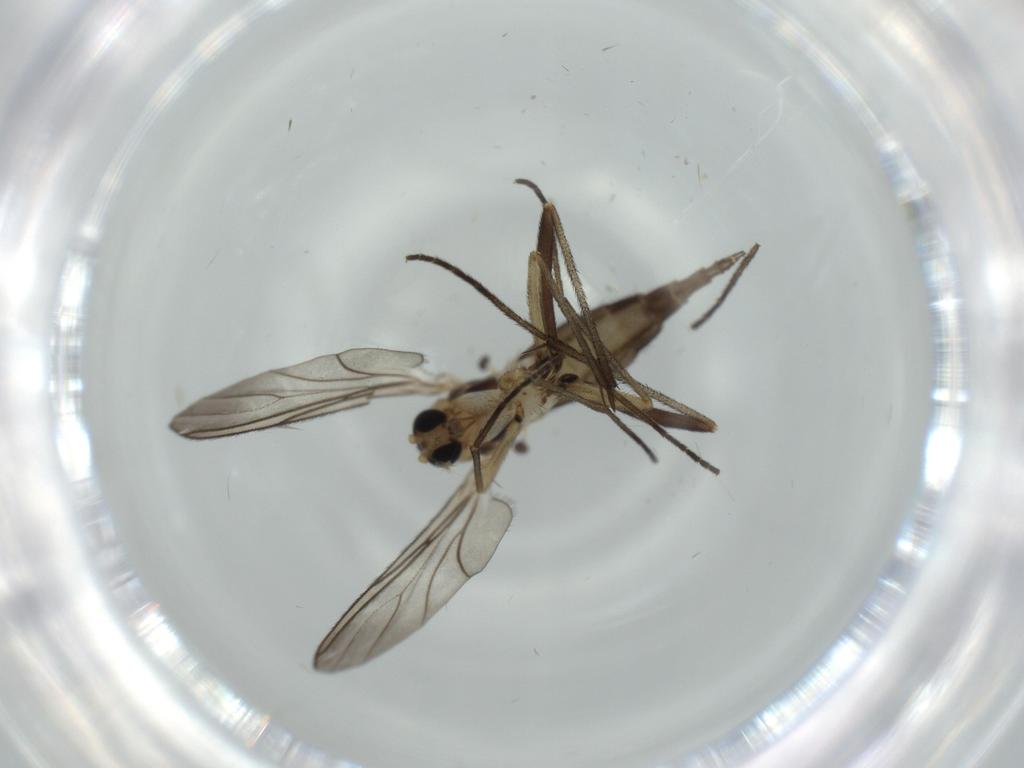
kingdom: Animalia
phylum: Arthropoda
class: Insecta
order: Diptera
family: Sciaridae
